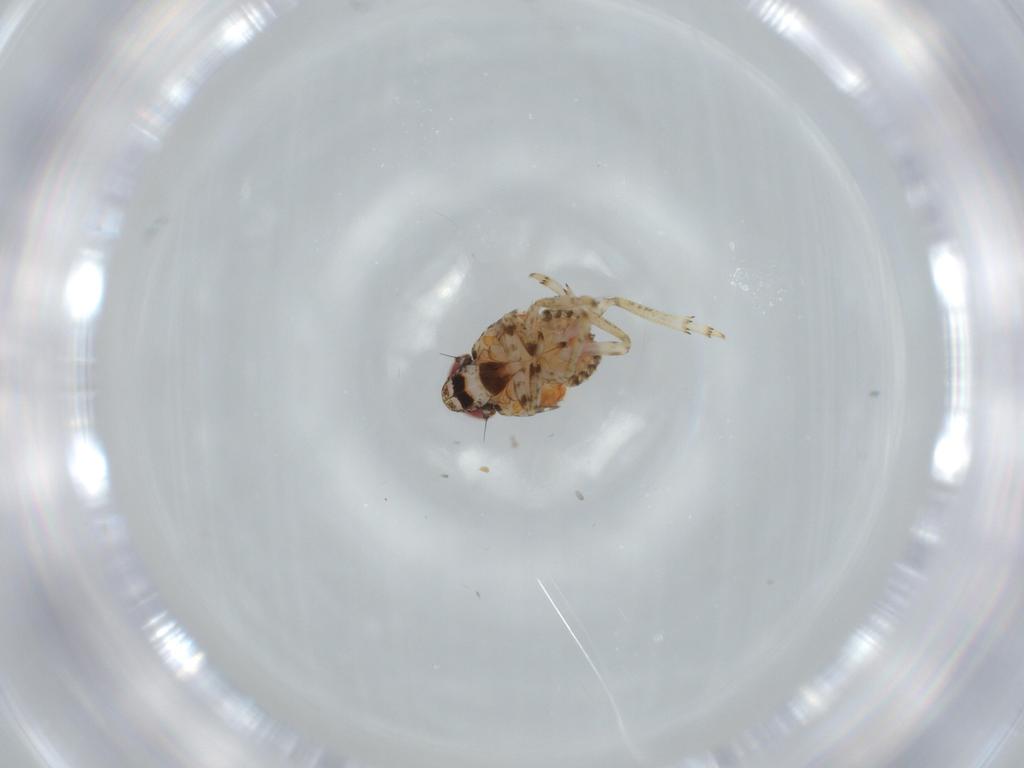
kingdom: Animalia
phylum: Arthropoda
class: Insecta
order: Hemiptera
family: Issidae
